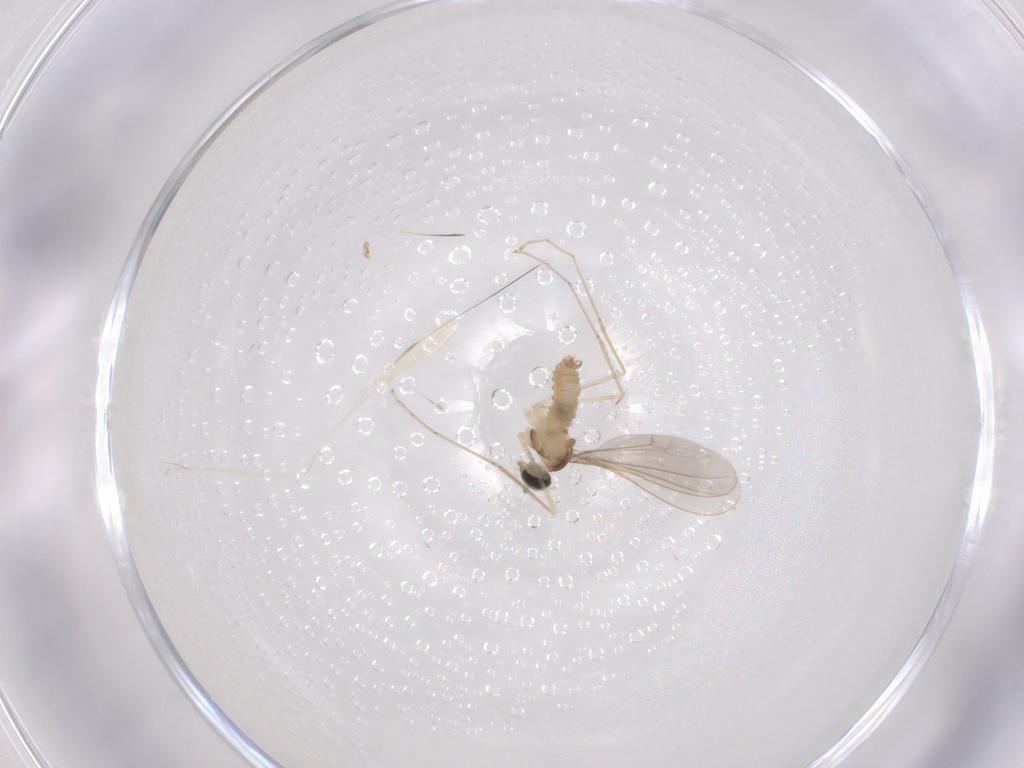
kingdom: Animalia
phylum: Arthropoda
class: Insecta
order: Diptera
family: Cecidomyiidae
